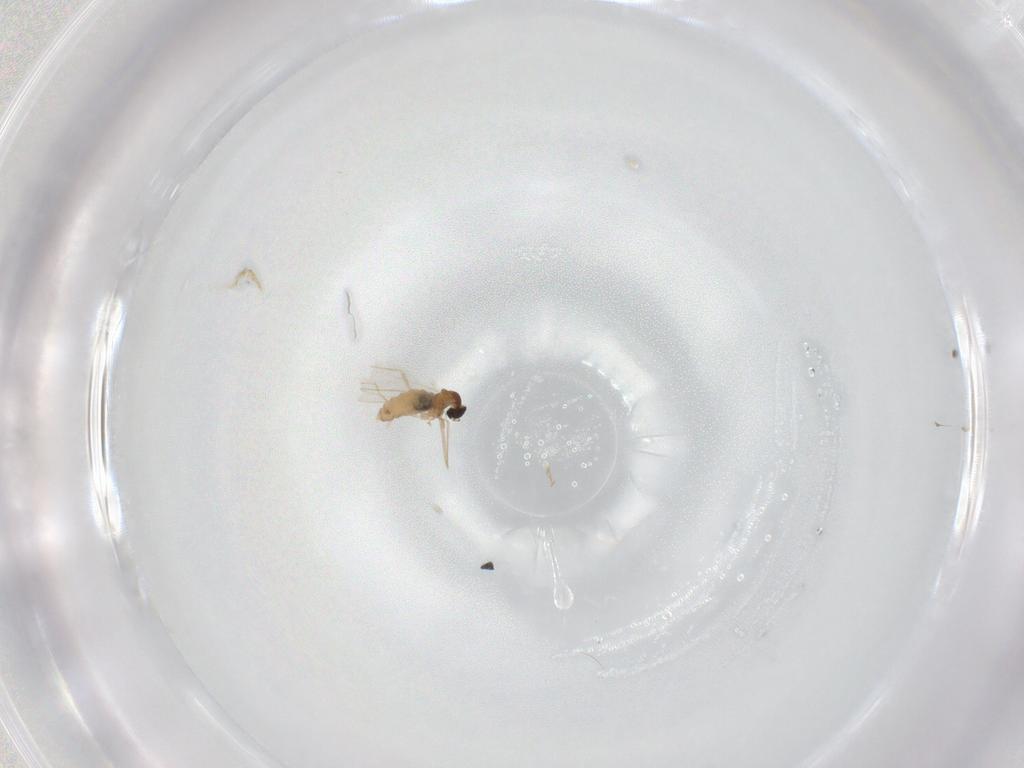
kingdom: Animalia
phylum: Arthropoda
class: Insecta
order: Diptera
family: Cecidomyiidae
